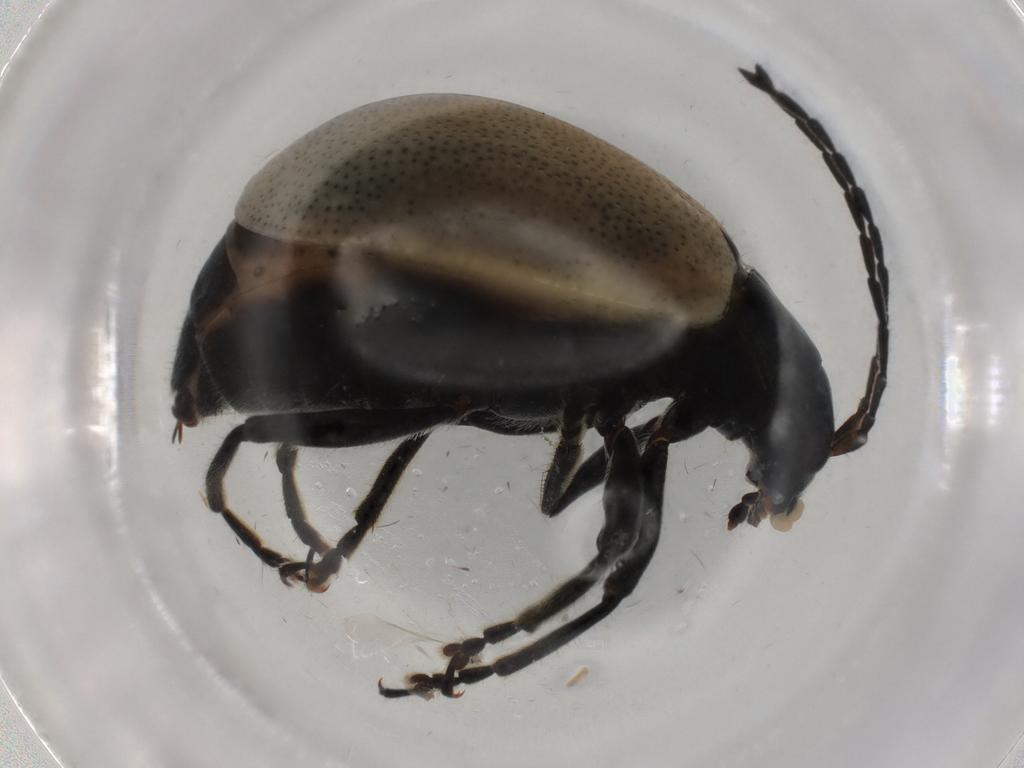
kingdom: Animalia
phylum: Arthropoda
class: Insecta
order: Coleoptera
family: Chrysomelidae
